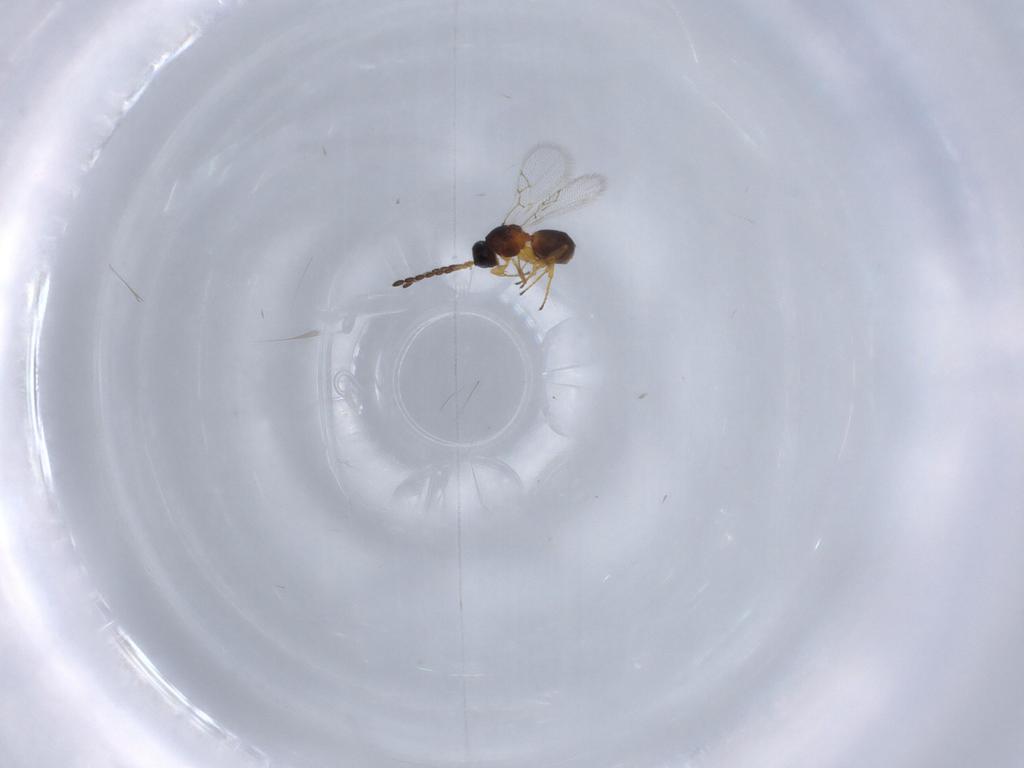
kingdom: Animalia
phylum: Arthropoda
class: Insecta
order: Hymenoptera
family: Figitidae
